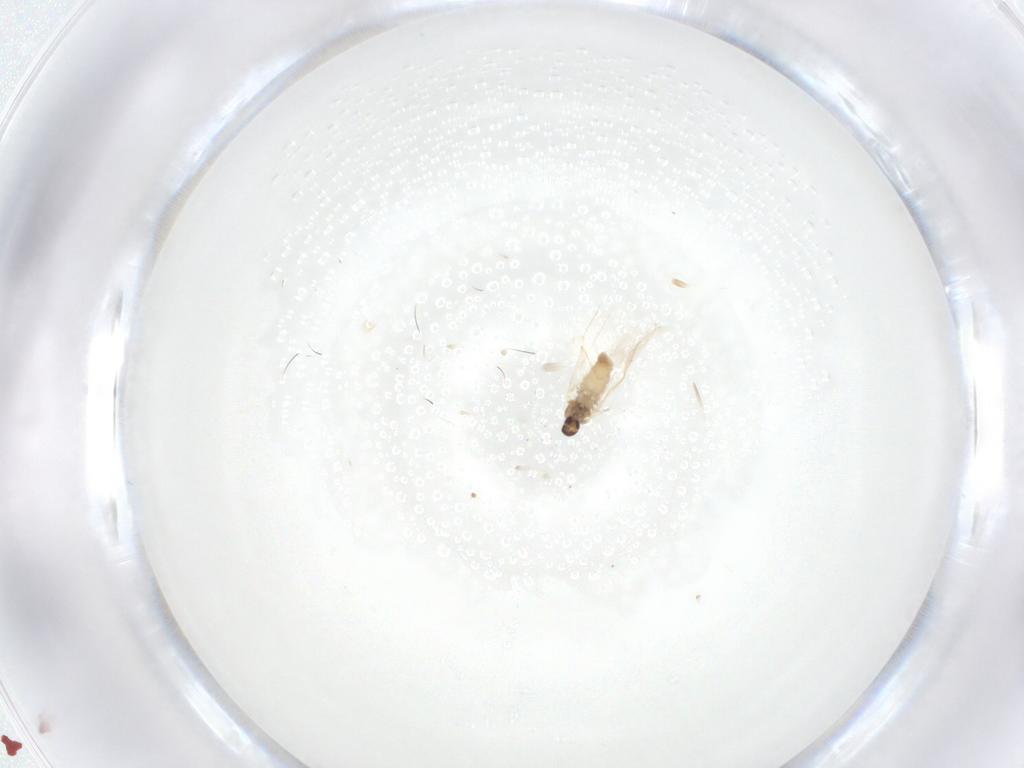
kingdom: Animalia
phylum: Arthropoda
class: Insecta
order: Diptera
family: Cecidomyiidae
